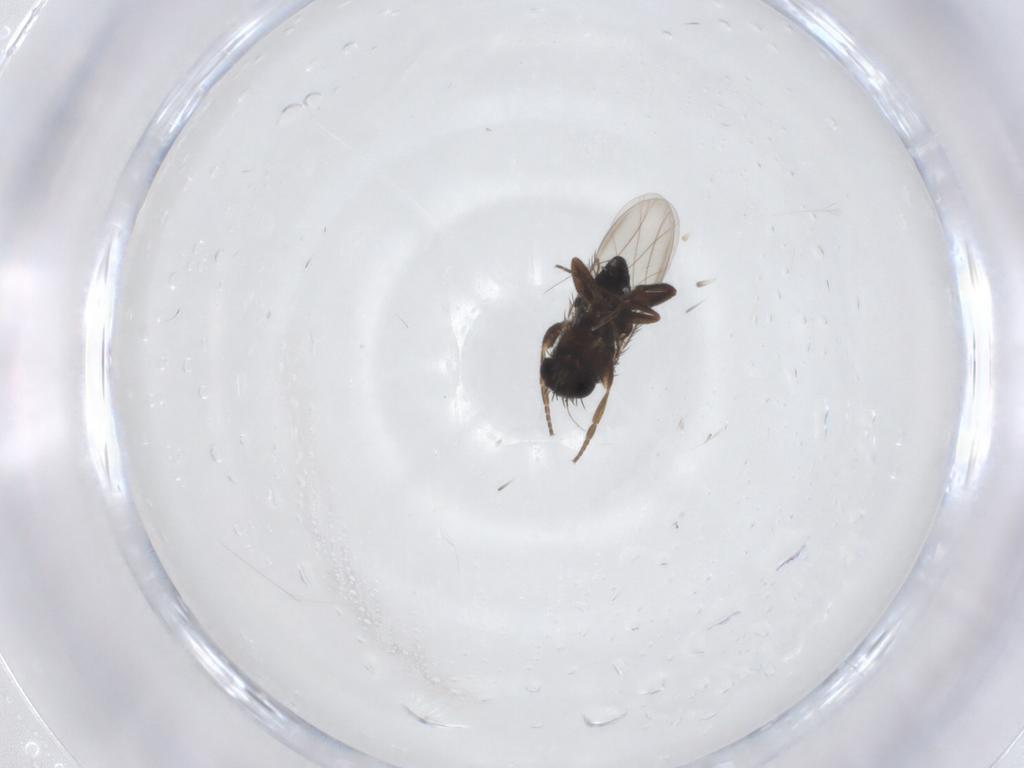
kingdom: Animalia
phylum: Arthropoda
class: Insecta
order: Diptera
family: Phoridae
